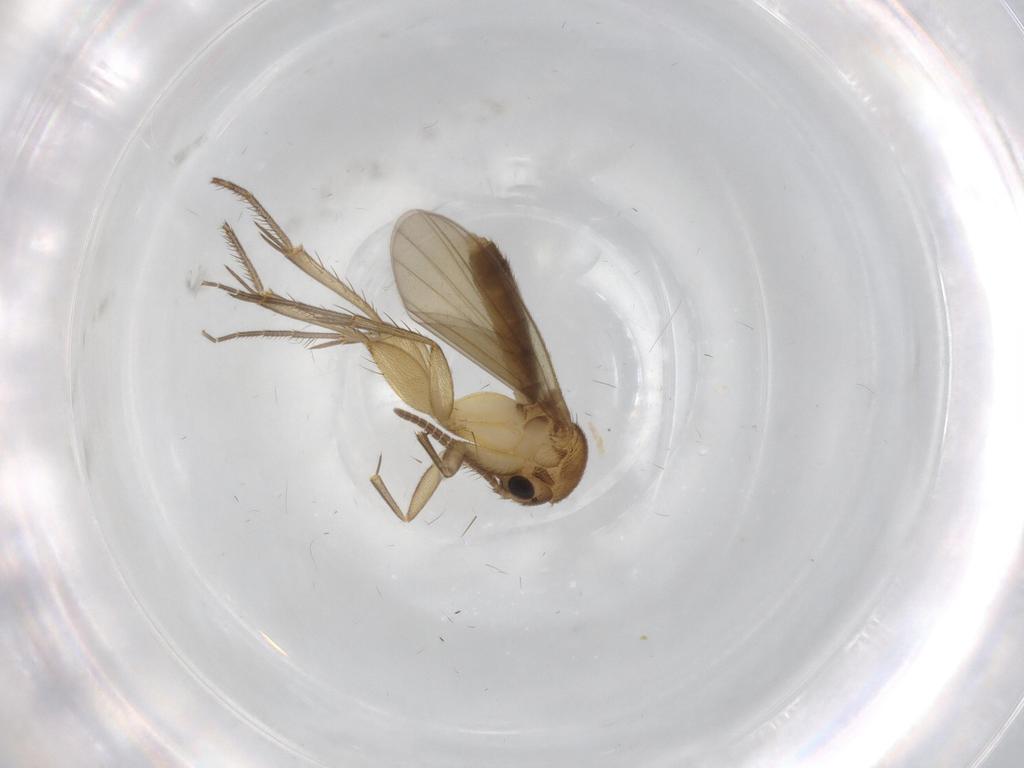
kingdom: Animalia
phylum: Arthropoda
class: Insecta
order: Diptera
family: Mycetophilidae
